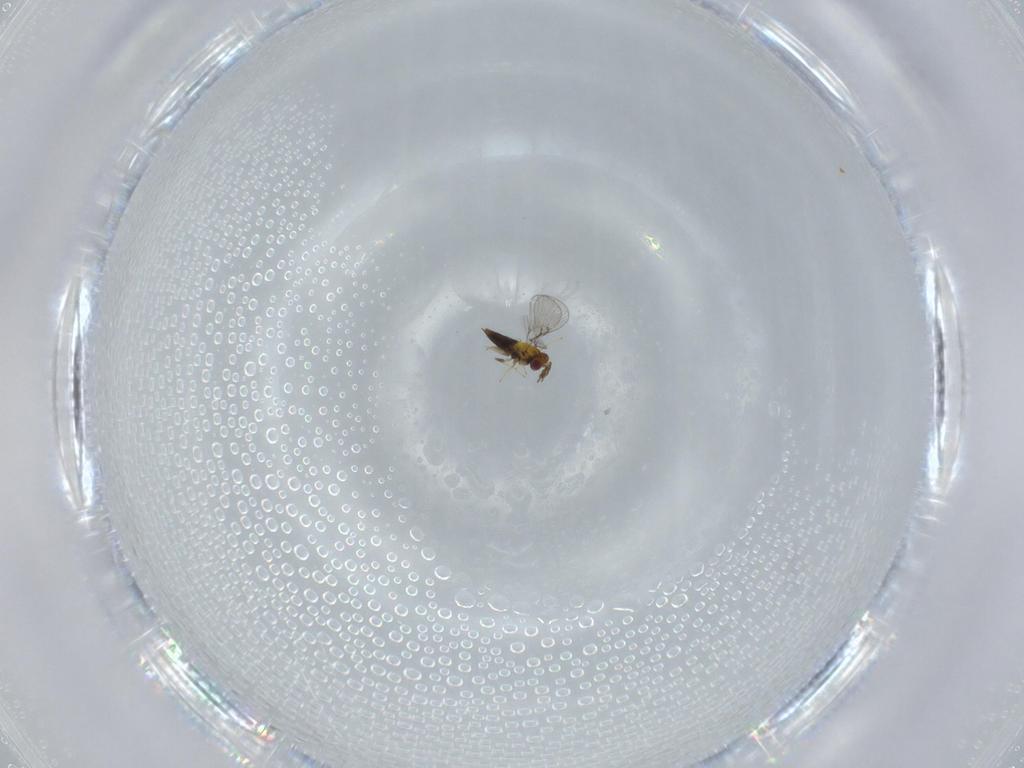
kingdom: Animalia
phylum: Arthropoda
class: Insecta
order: Hymenoptera
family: Trichogrammatidae
